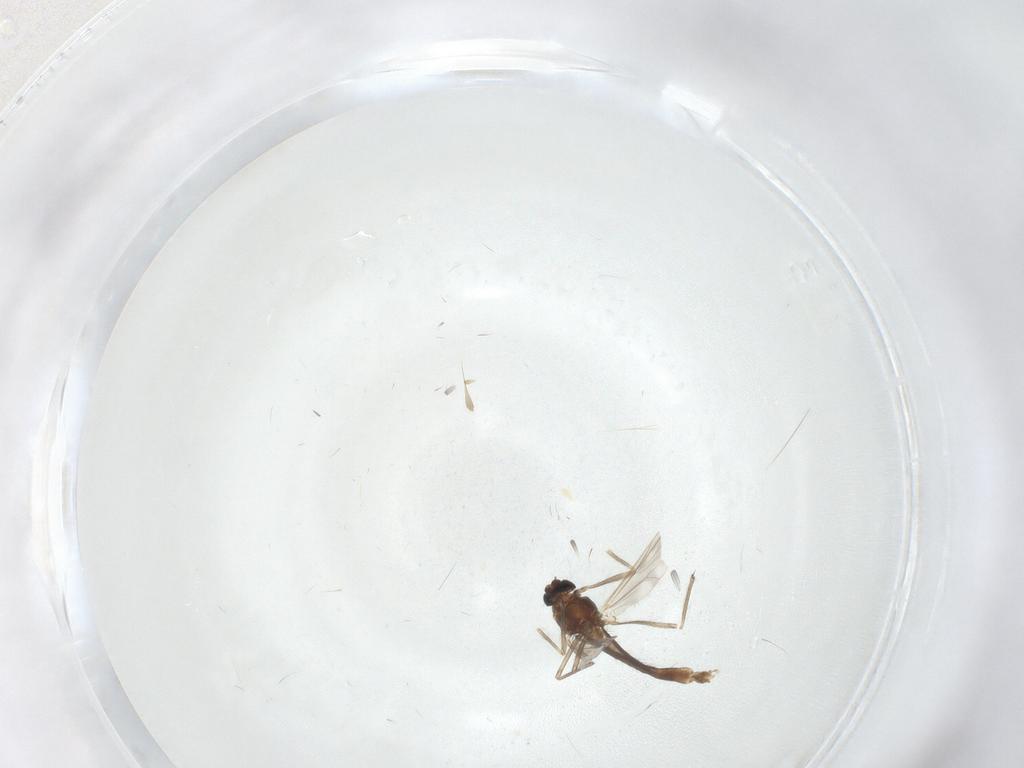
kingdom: Animalia
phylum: Arthropoda
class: Insecta
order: Diptera
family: Chironomidae
